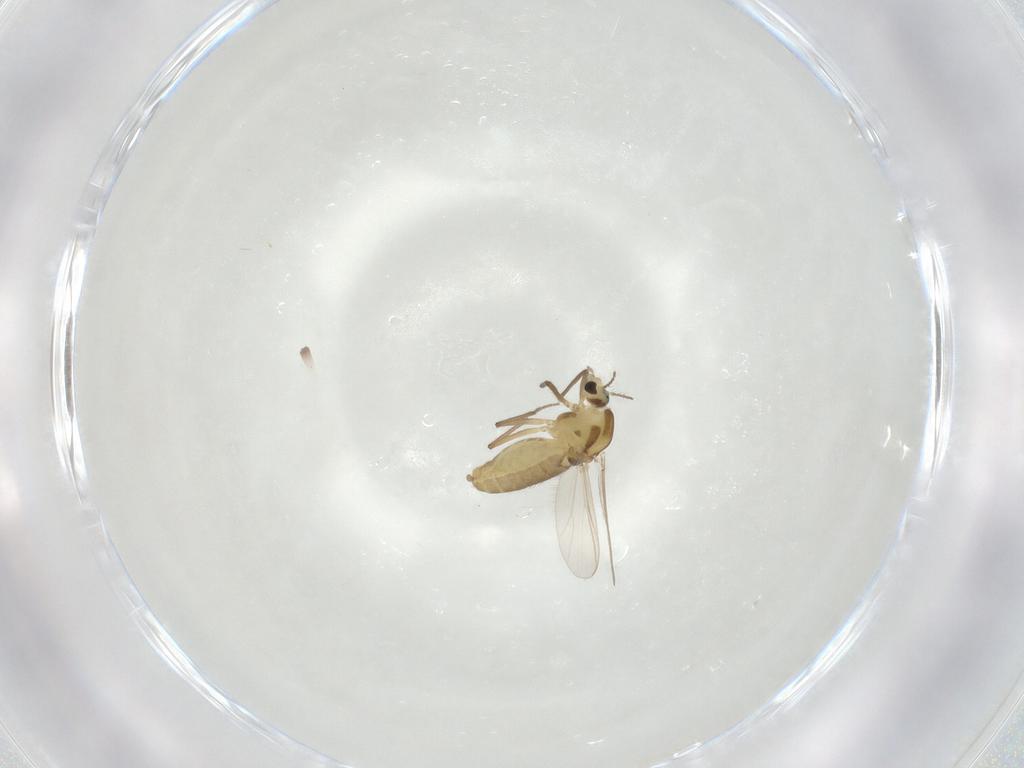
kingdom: Animalia
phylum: Arthropoda
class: Insecta
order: Diptera
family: Chironomidae
